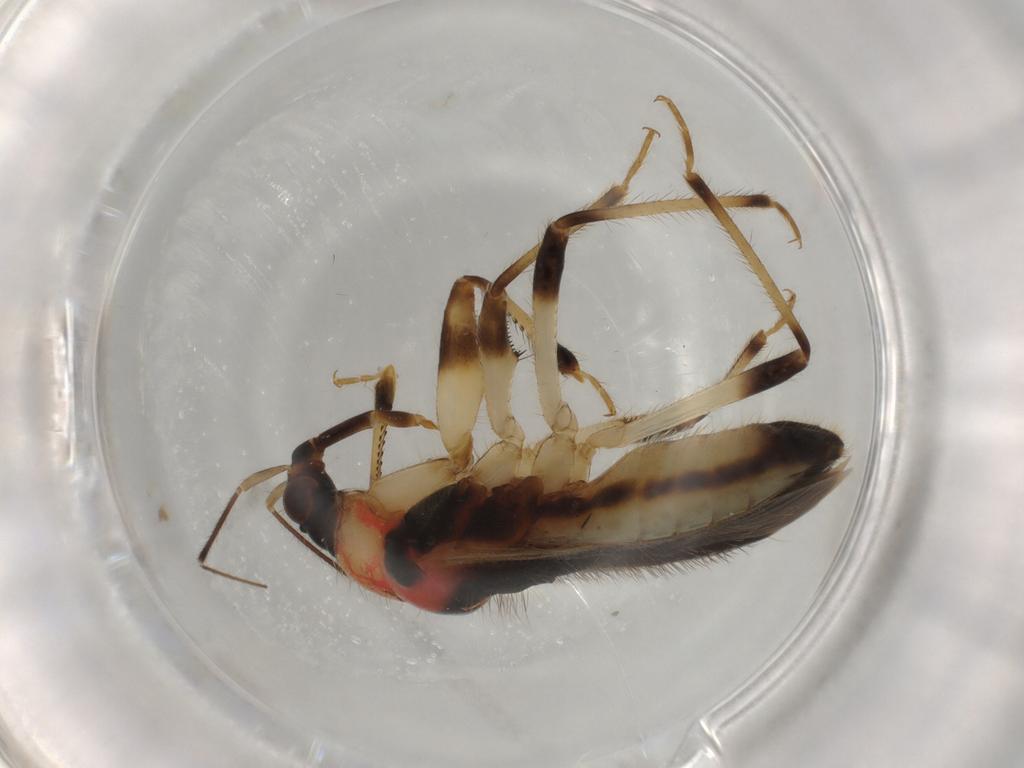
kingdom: Animalia
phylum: Arthropoda
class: Insecta
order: Hemiptera
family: Nabidae
